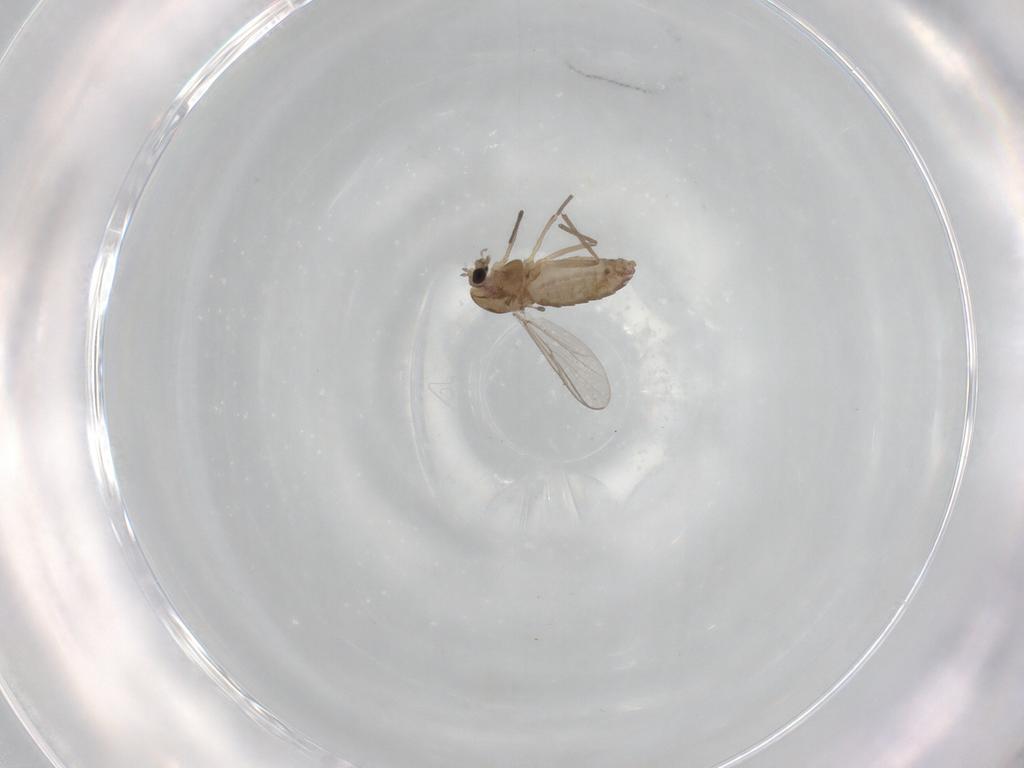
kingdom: Animalia
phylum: Arthropoda
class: Insecta
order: Diptera
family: Chironomidae
